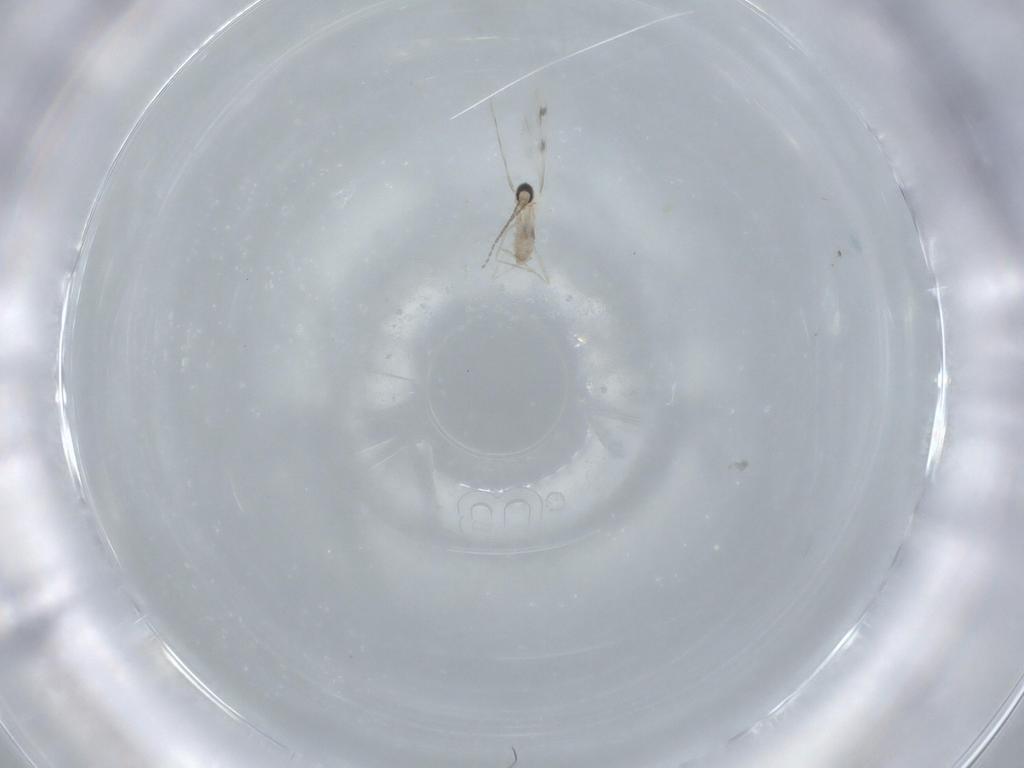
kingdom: Animalia
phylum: Arthropoda
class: Insecta
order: Diptera
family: Cecidomyiidae
